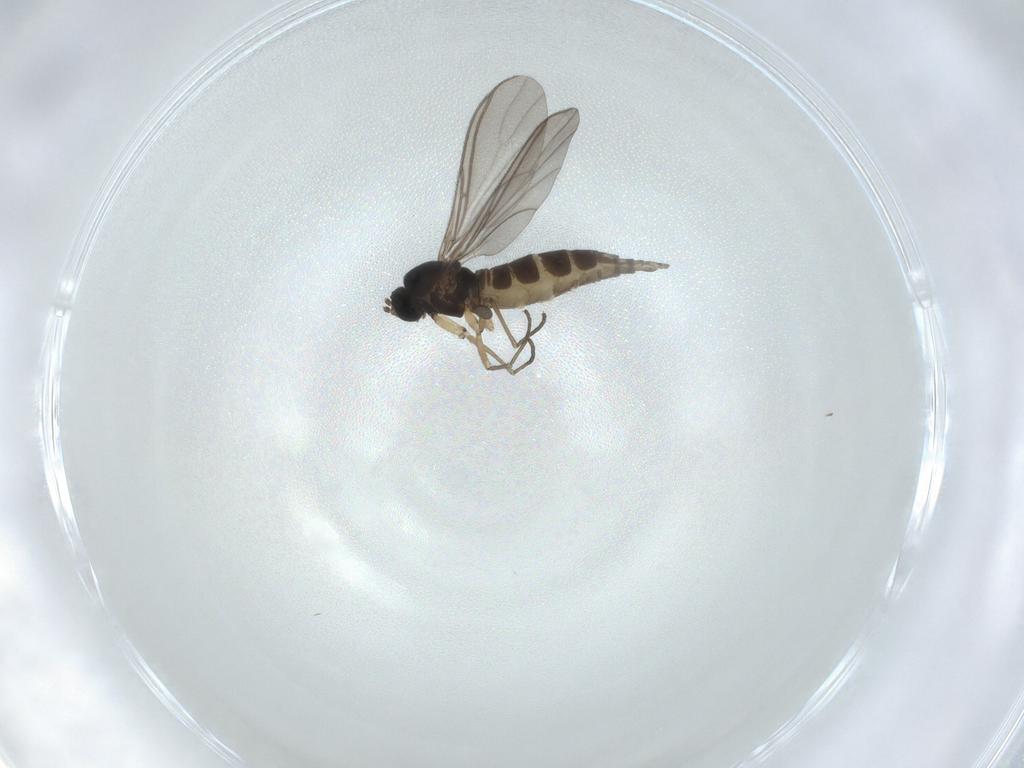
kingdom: Animalia
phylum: Arthropoda
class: Insecta
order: Diptera
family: Sciaridae
